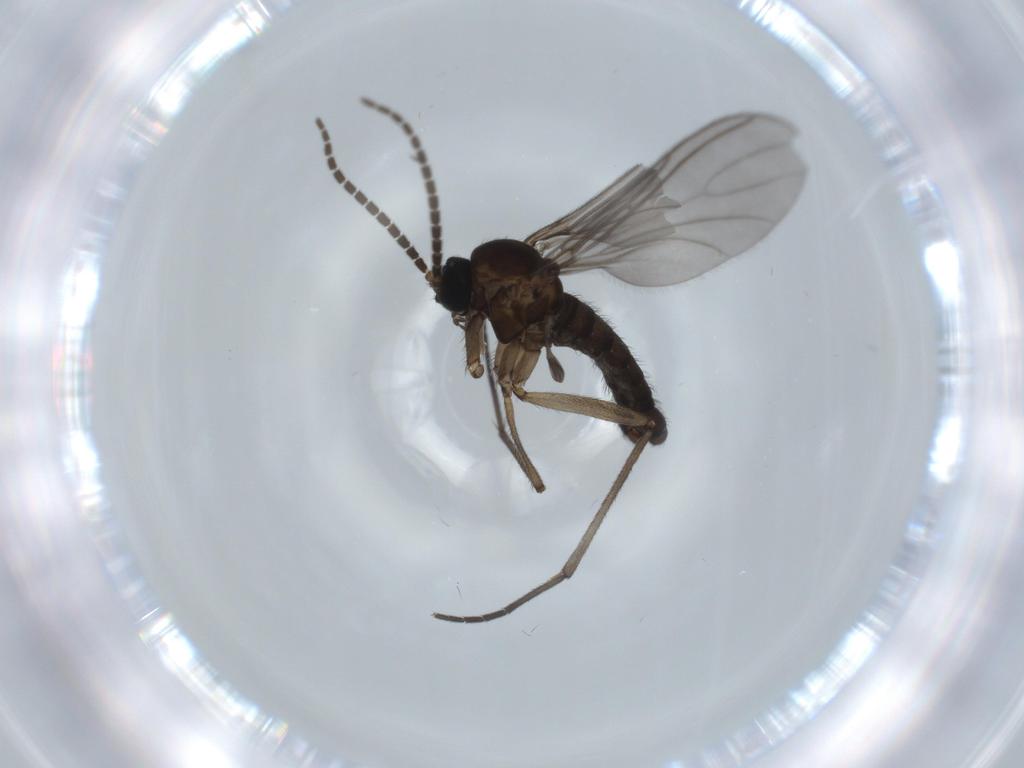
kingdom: Animalia
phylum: Arthropoda
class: Insecta
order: Diptera
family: Sciaridae
